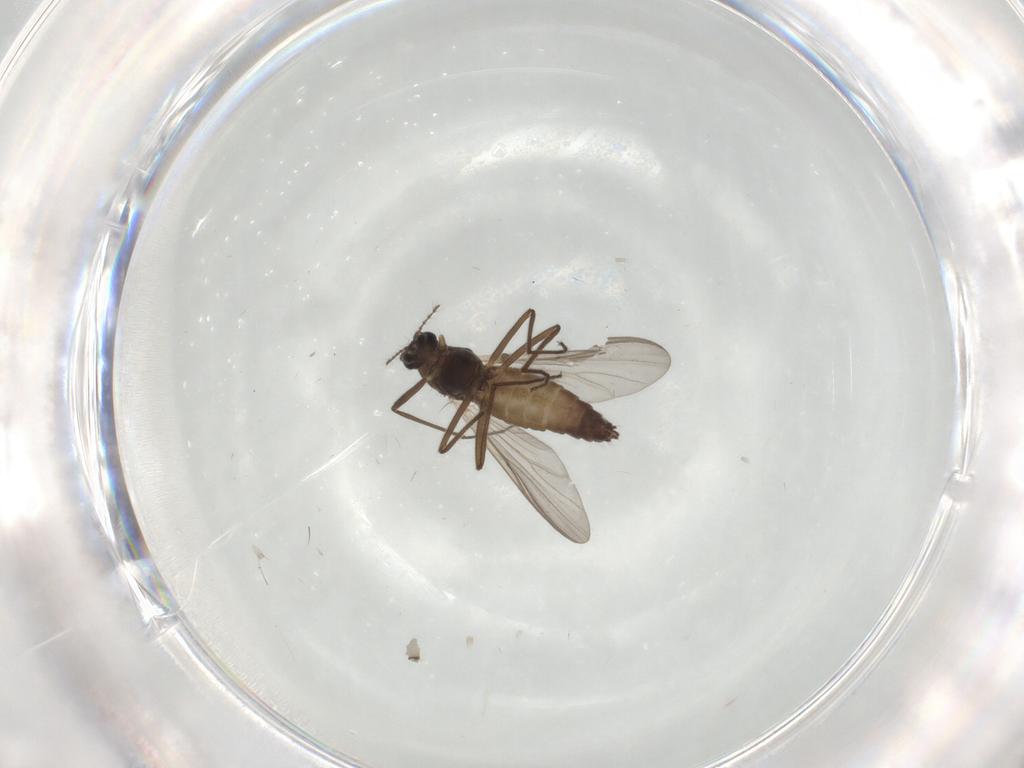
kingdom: Animalia
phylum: Arthropoda
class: Insecta
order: Diptera
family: Chironomidae
